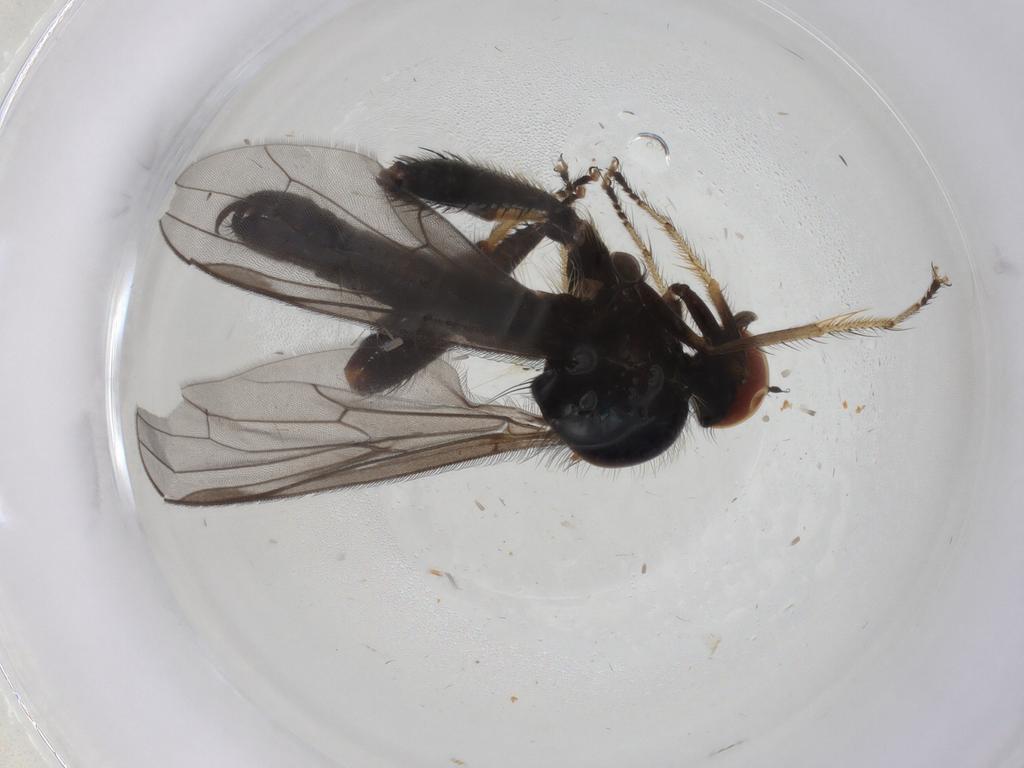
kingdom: Animalia
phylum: Arthropoda
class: Insecta
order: Diptera
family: Hybotidae
